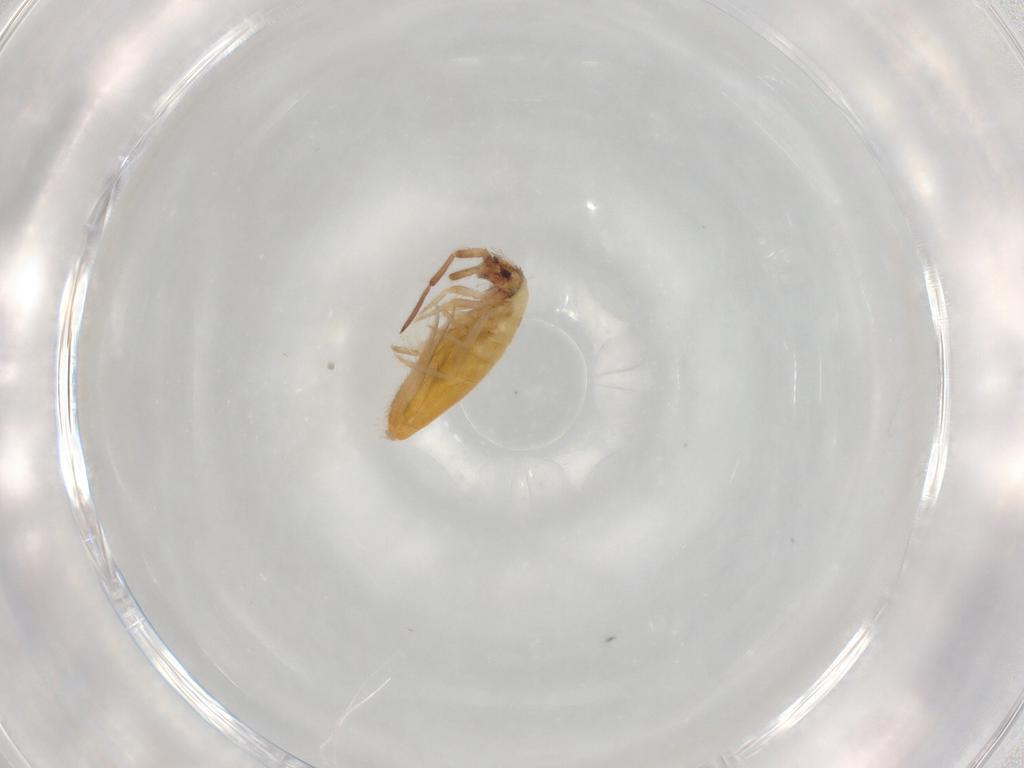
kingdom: Animalia
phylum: Arthropoda
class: Collembola
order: Entomobryomorpha
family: Entomobryidae
